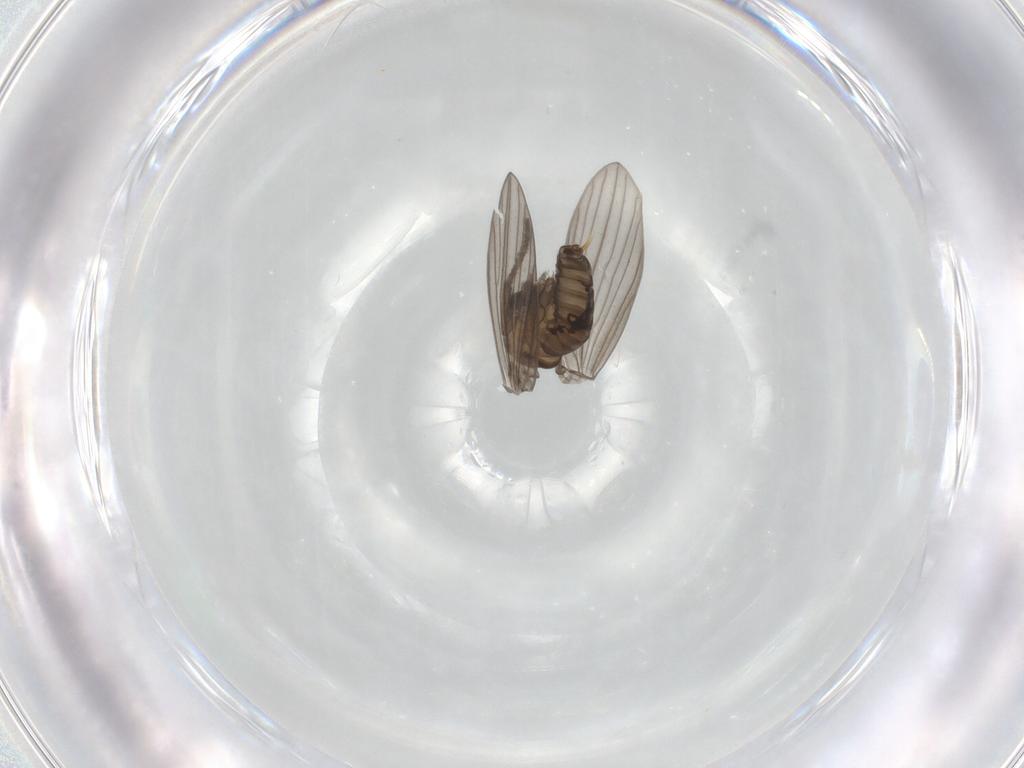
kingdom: Animalia
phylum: Arthropoda
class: Insecta
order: Diptera
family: Psychodidae
